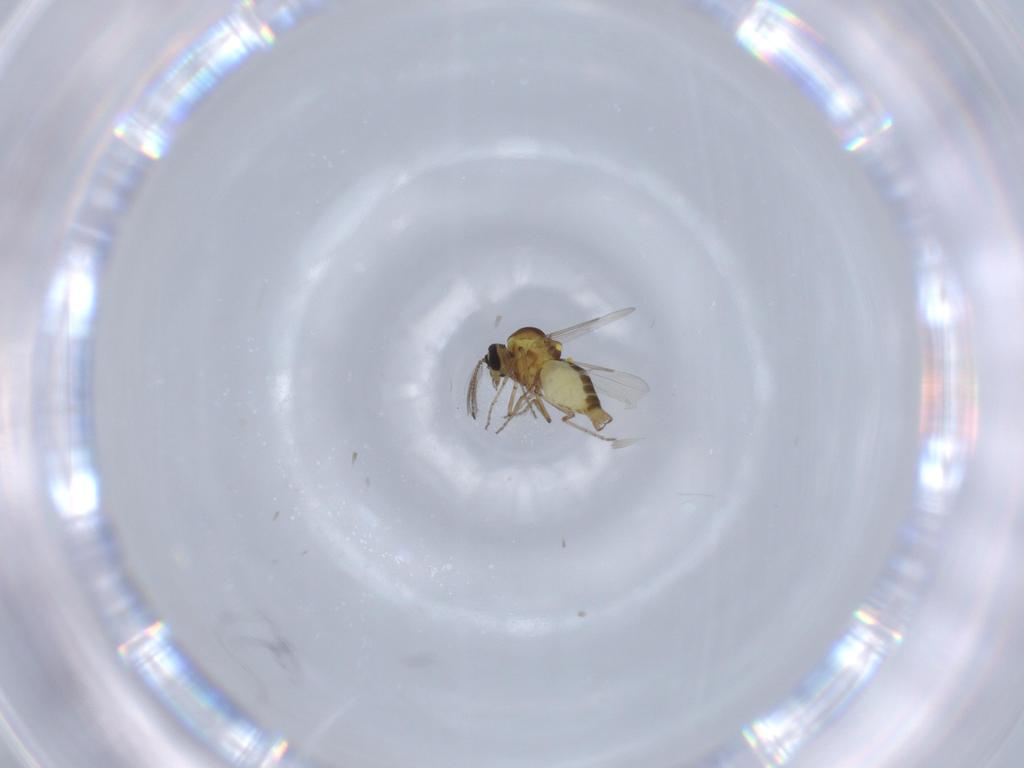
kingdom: Animalia
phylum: Arthropoda
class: Insecta
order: Diptera
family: Tabanidae
